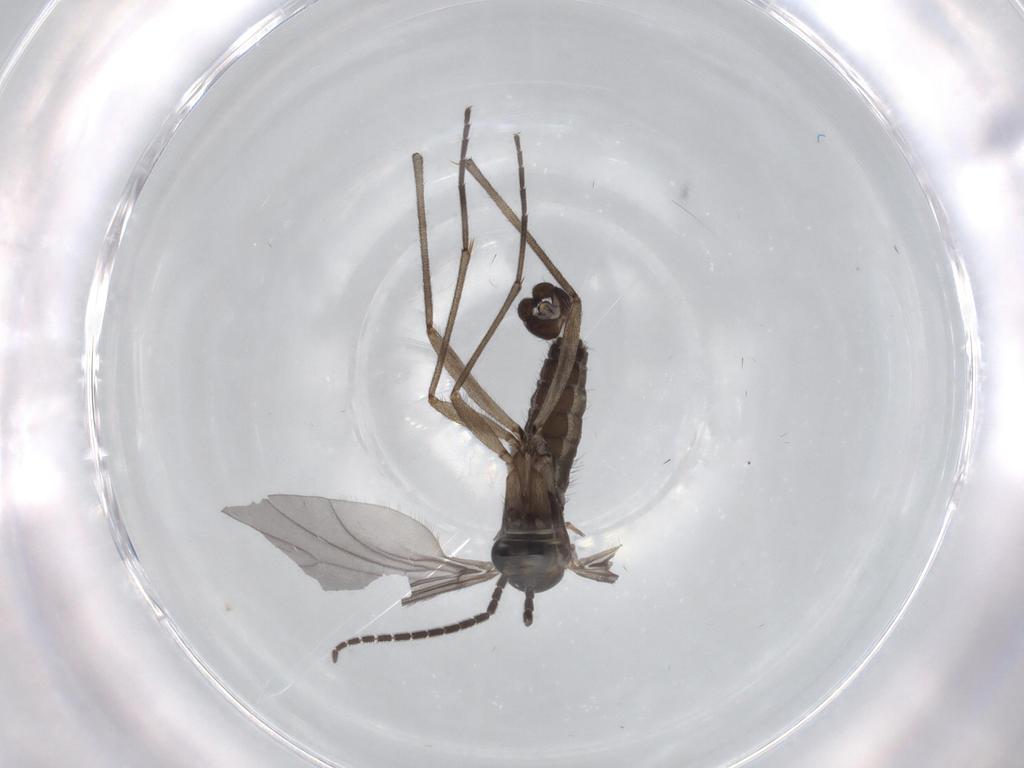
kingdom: Animalia
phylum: Arthropoda
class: Insecta
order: Diptera
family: Sciaridae
